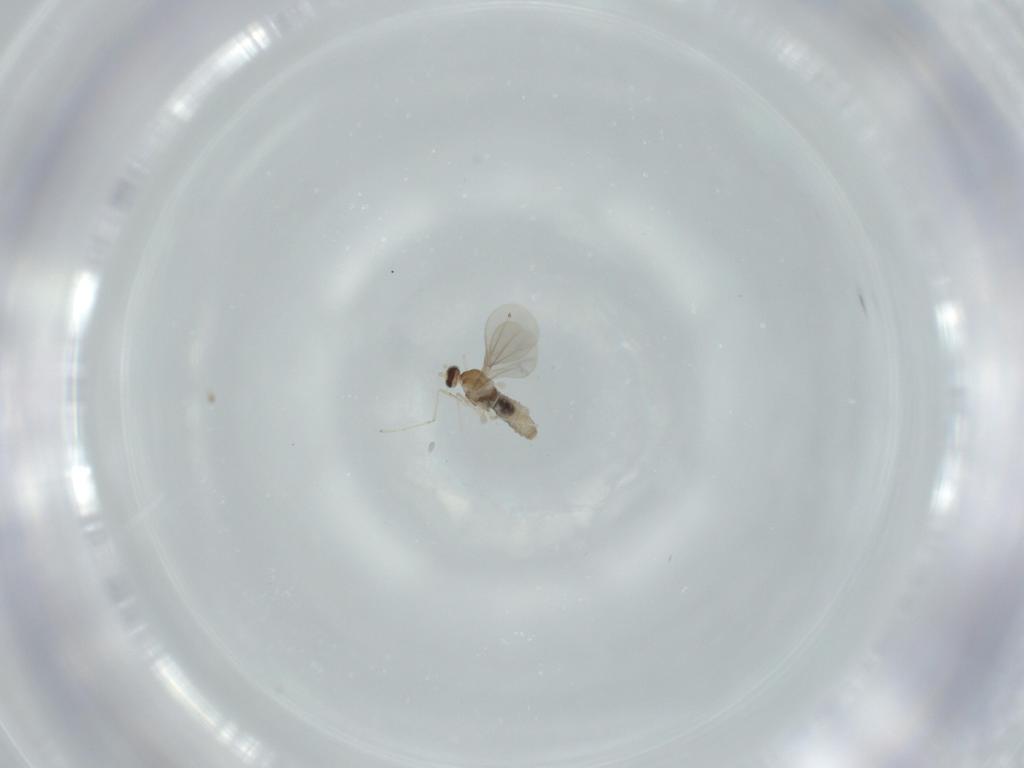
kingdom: Animalia
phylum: Arthropoda
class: Insecta
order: Diptera
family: Cecidomyiidae
